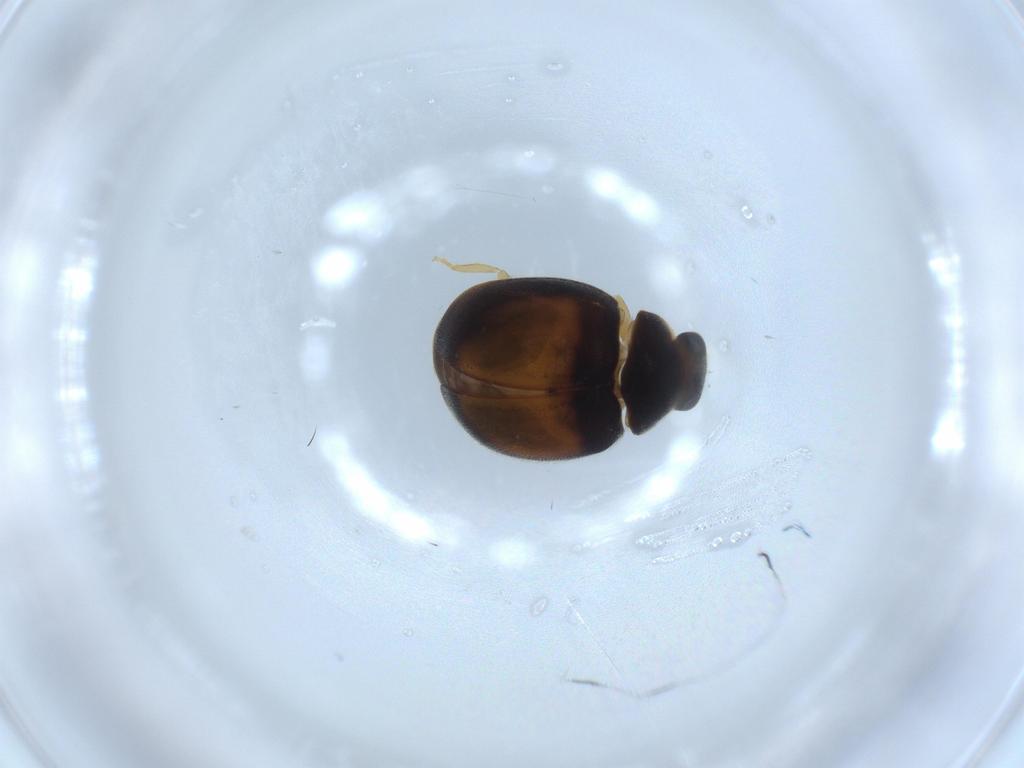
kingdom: Animalia
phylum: Arthropoda
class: Insecta
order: Coleoptera
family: Coccinellidae
